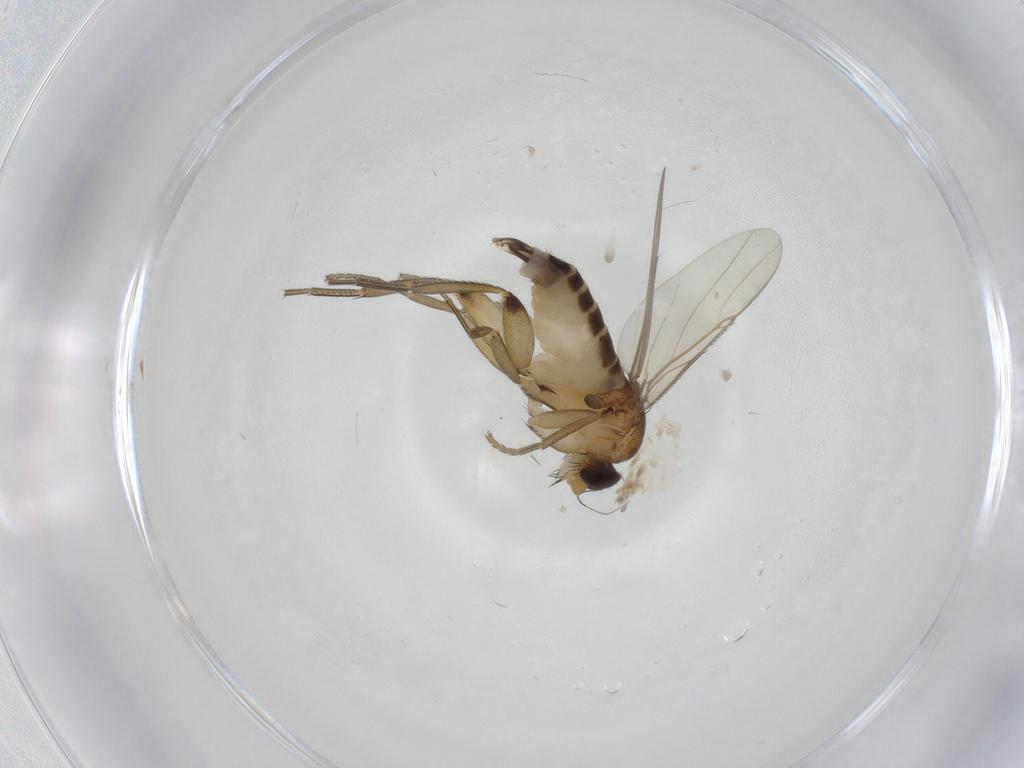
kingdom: Animalia
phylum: Arthropoda
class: Insecta
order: Diptera
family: Phoridae
